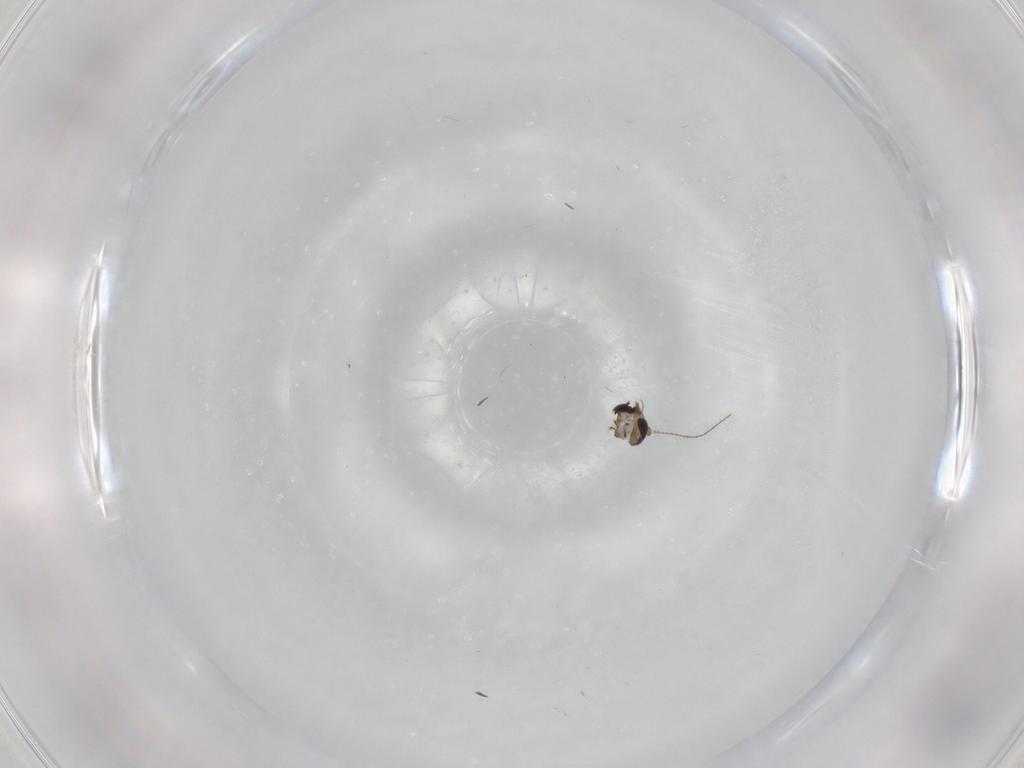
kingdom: Animalia
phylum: Arthropoda
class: Insecta
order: Diptera
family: Ceratopogonidae
